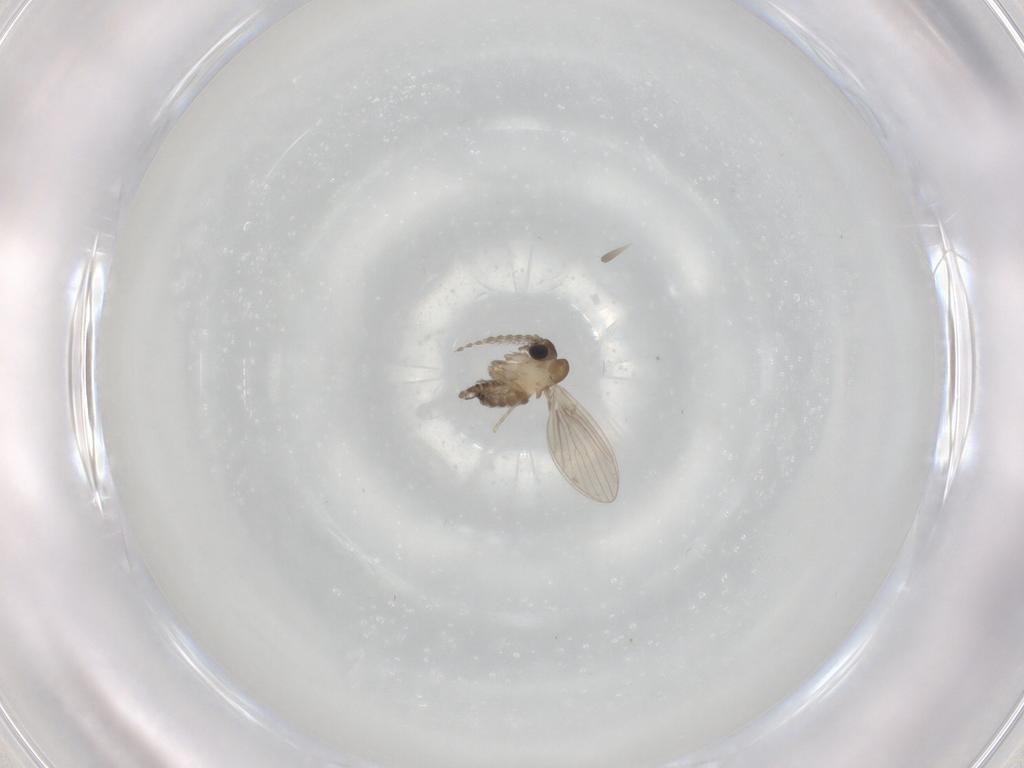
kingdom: Animalia
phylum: Arthropoda
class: Insecta
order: Diptera
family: Psychodidae
